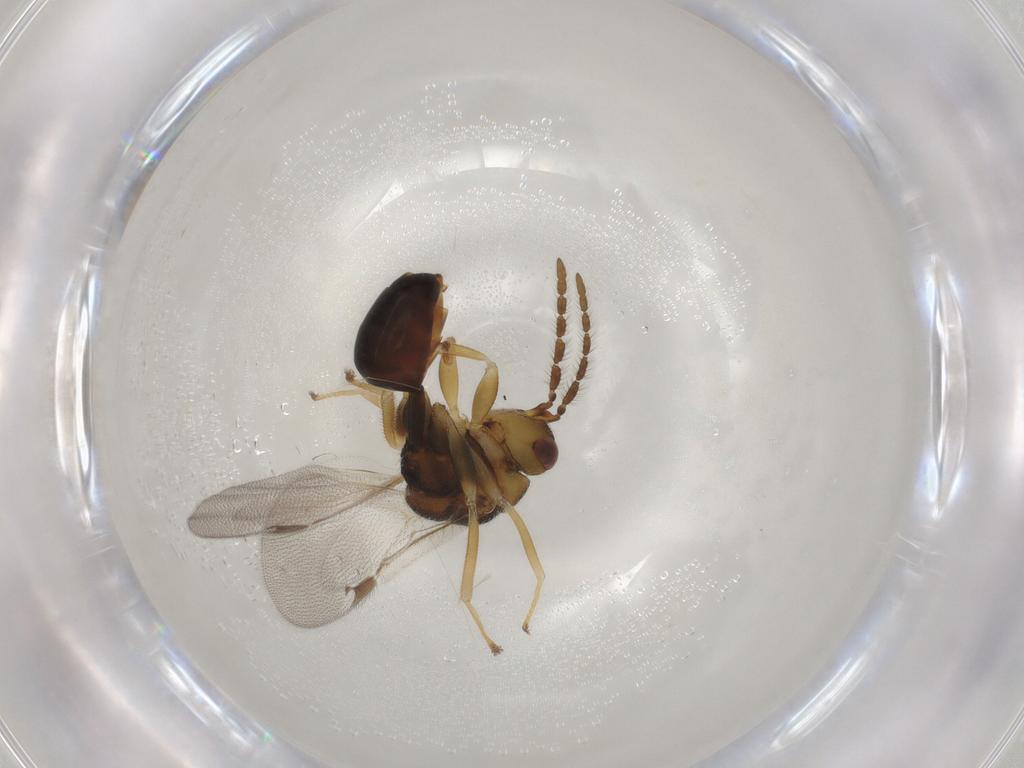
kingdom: Animalia
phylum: Arthropoda
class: Insecta
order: Hymenoptera
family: Eurytomidae
